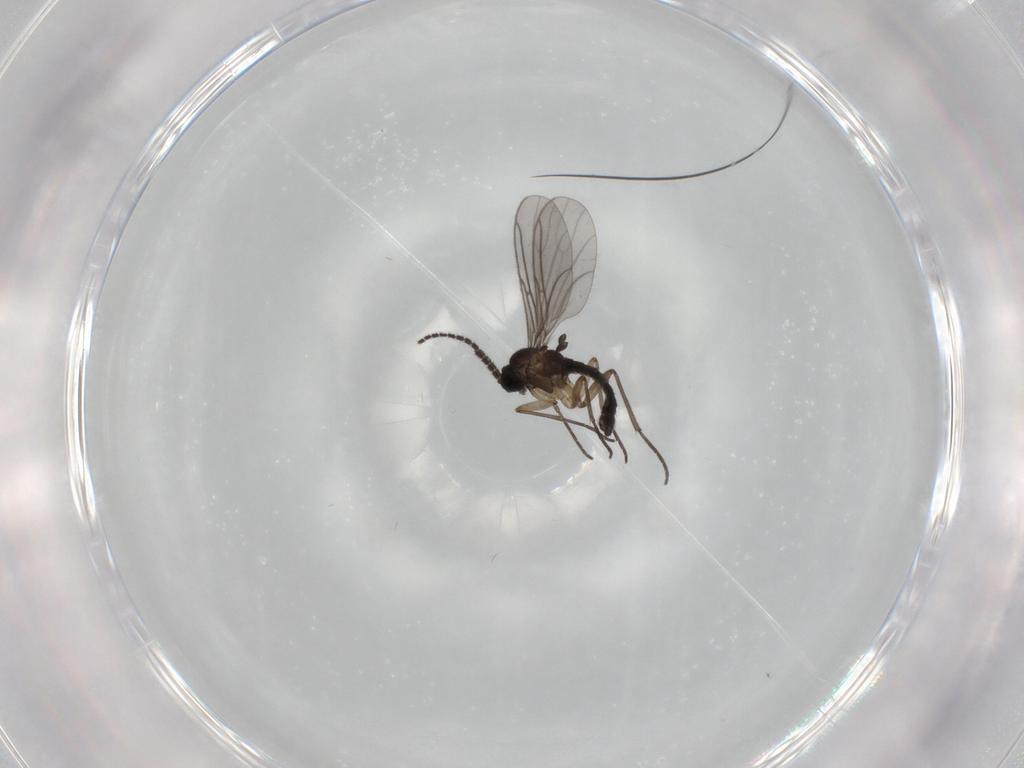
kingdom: Animalia
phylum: Arthropoda
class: Insecta
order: Diptera
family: Sciaridae
